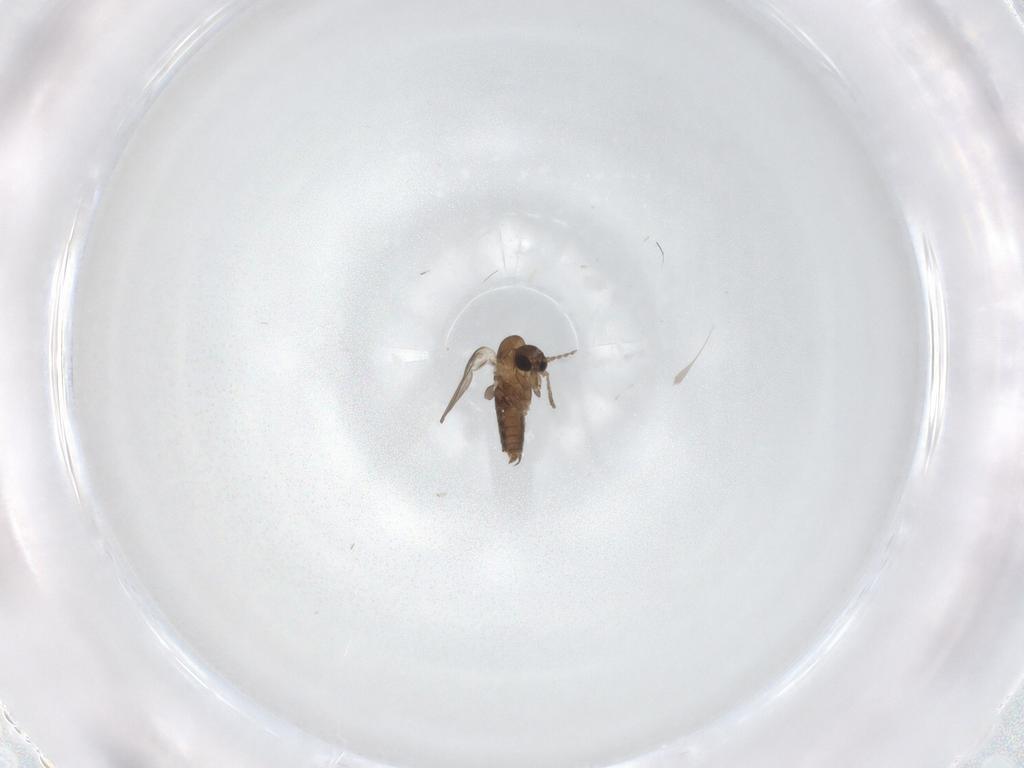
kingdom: Animalia
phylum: Arthropoda
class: Insecta
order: Diptera
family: Psychodidae
